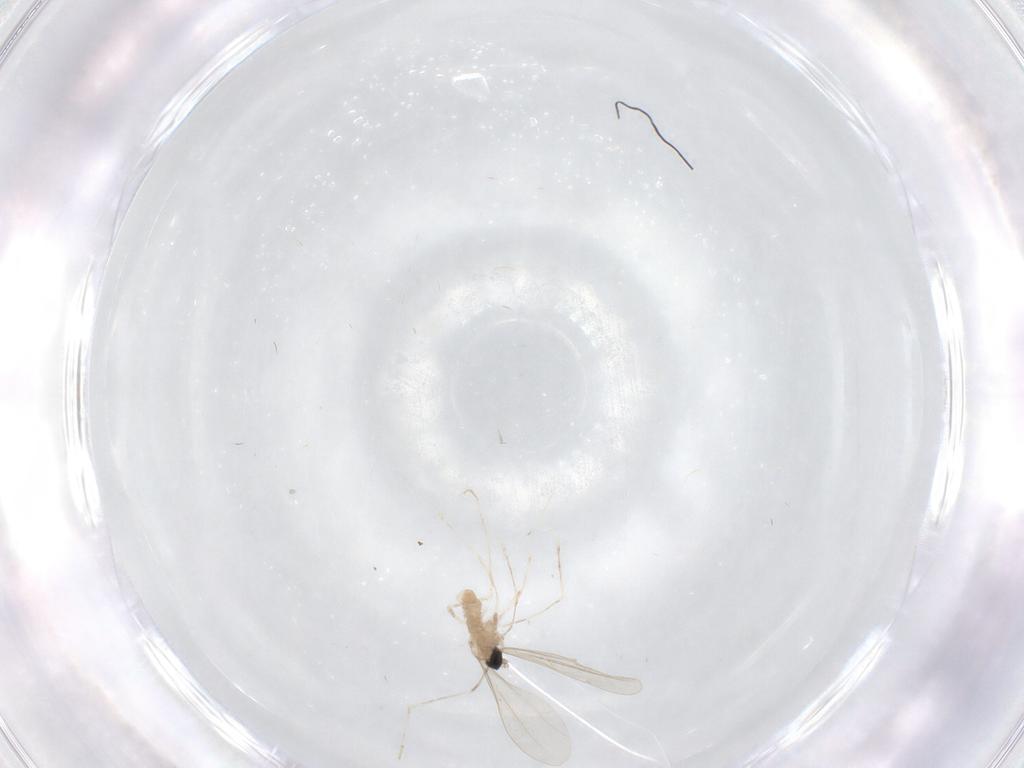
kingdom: Animalia
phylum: Arthropoda
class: Insecta
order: Diptera
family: Cecidomyiidae
